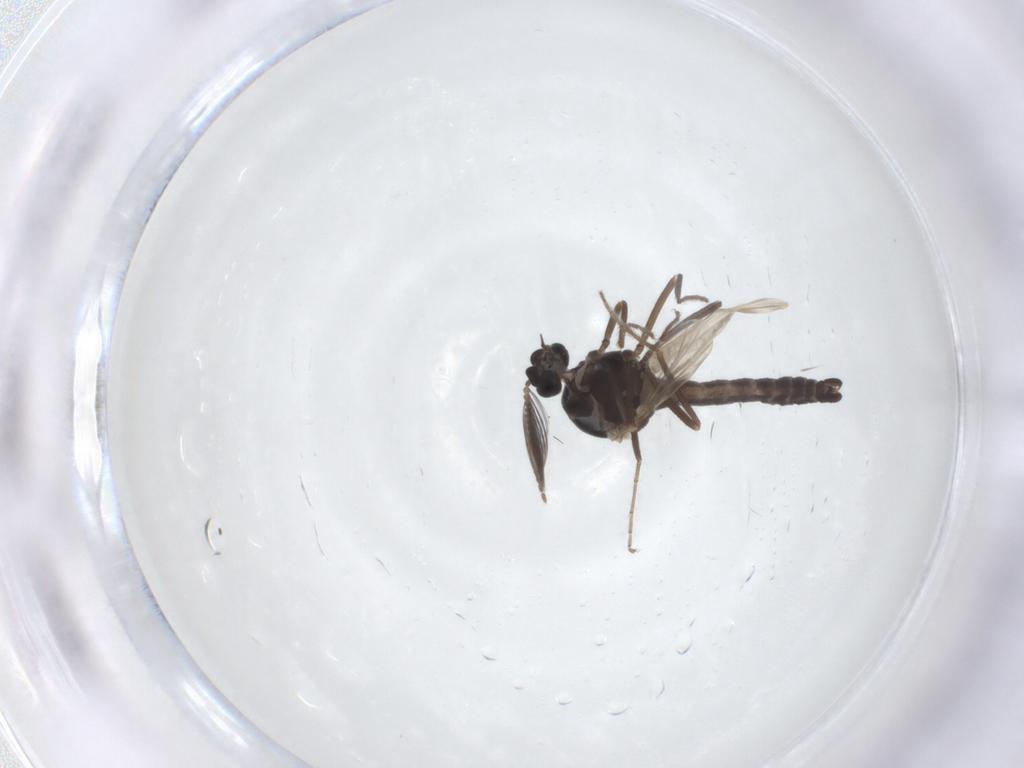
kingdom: Animalia
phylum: Arthropoda
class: Insecta
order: Diptera
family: Ceratopogonidae
